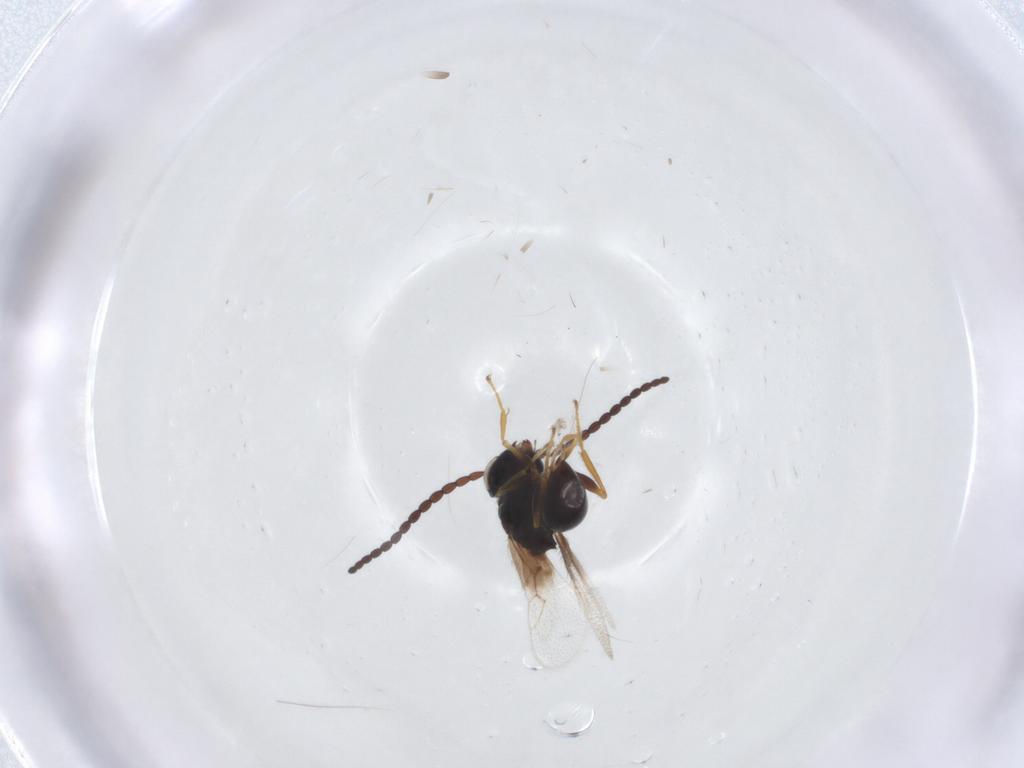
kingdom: Animalia
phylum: Arthropoda
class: Insecta
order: Hymenoptera
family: Figitidae
